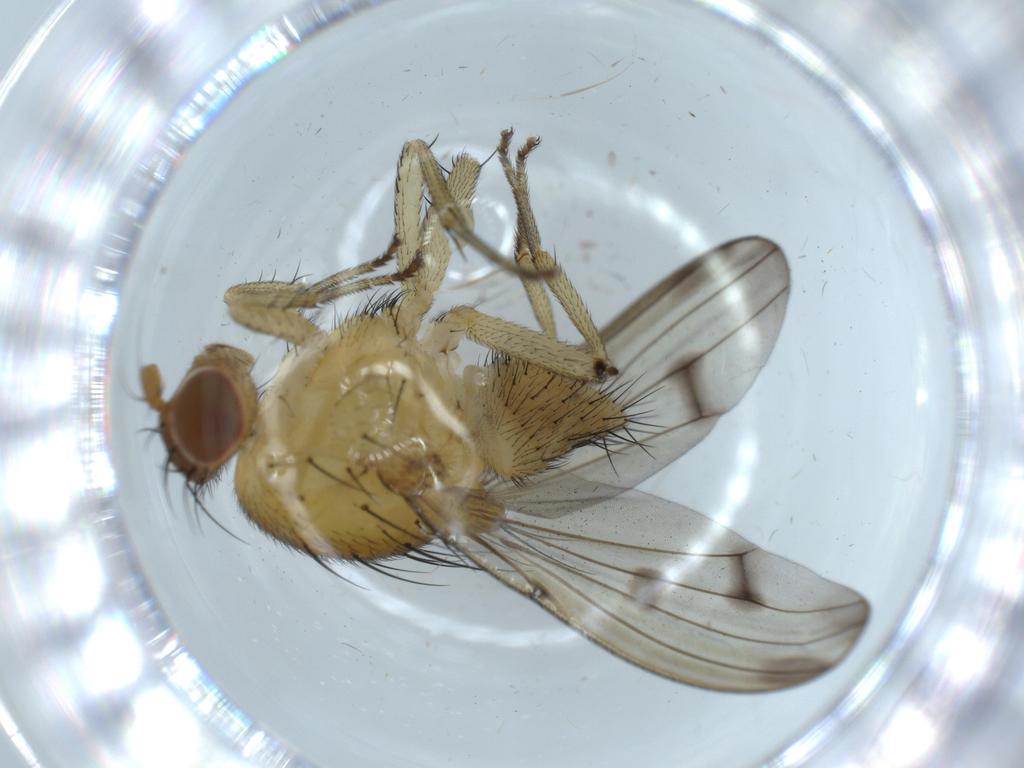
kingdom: Animalia
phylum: Arthropoda
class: Insecta
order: Diptera
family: Cecidomyiidae
